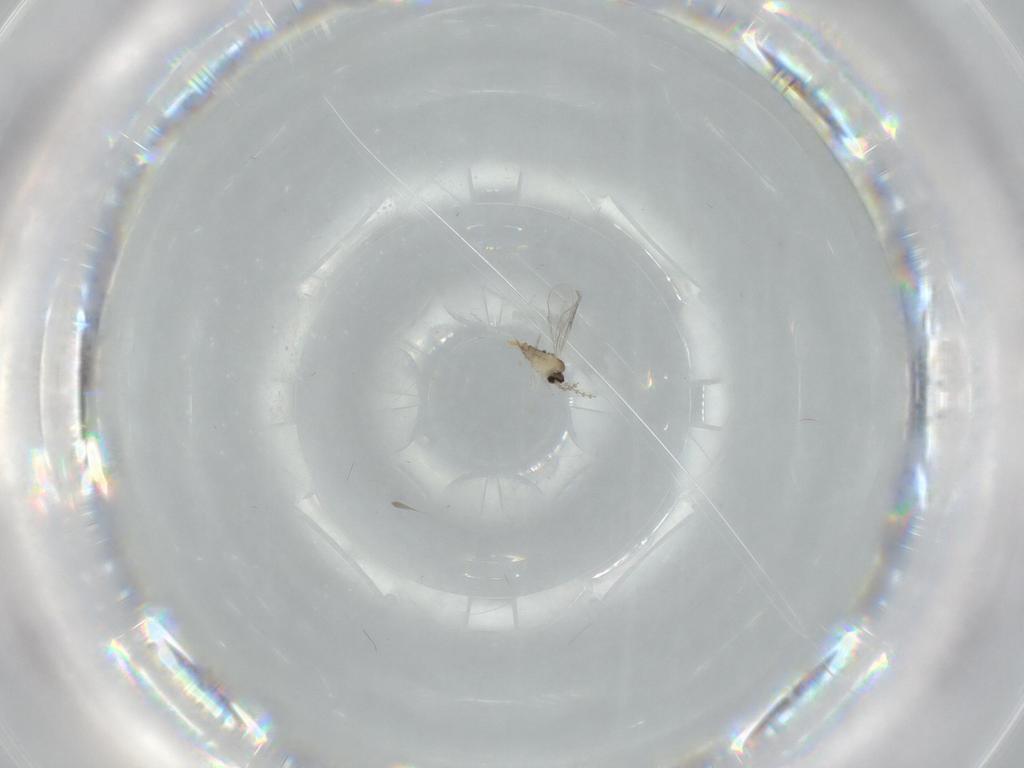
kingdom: Animalia
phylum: Arthropoda
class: Insecta
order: Diptera
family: Cecidomyiidae
